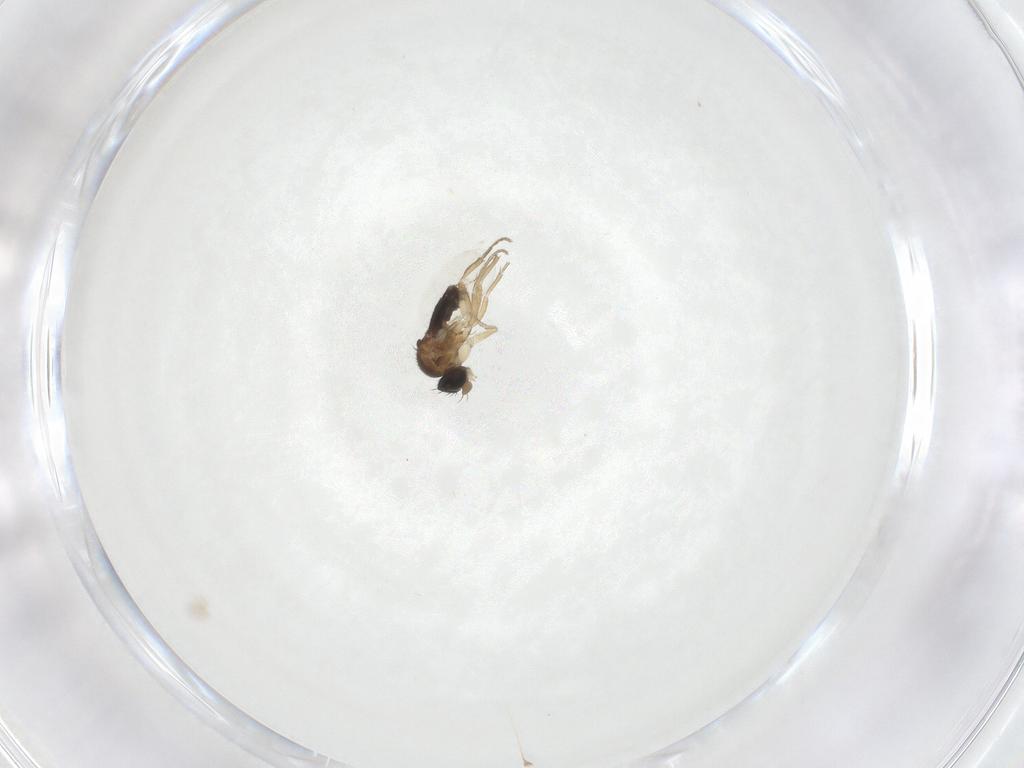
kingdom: Animalia
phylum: Arthropoda
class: Insecta
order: Diptera
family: Phoridae
